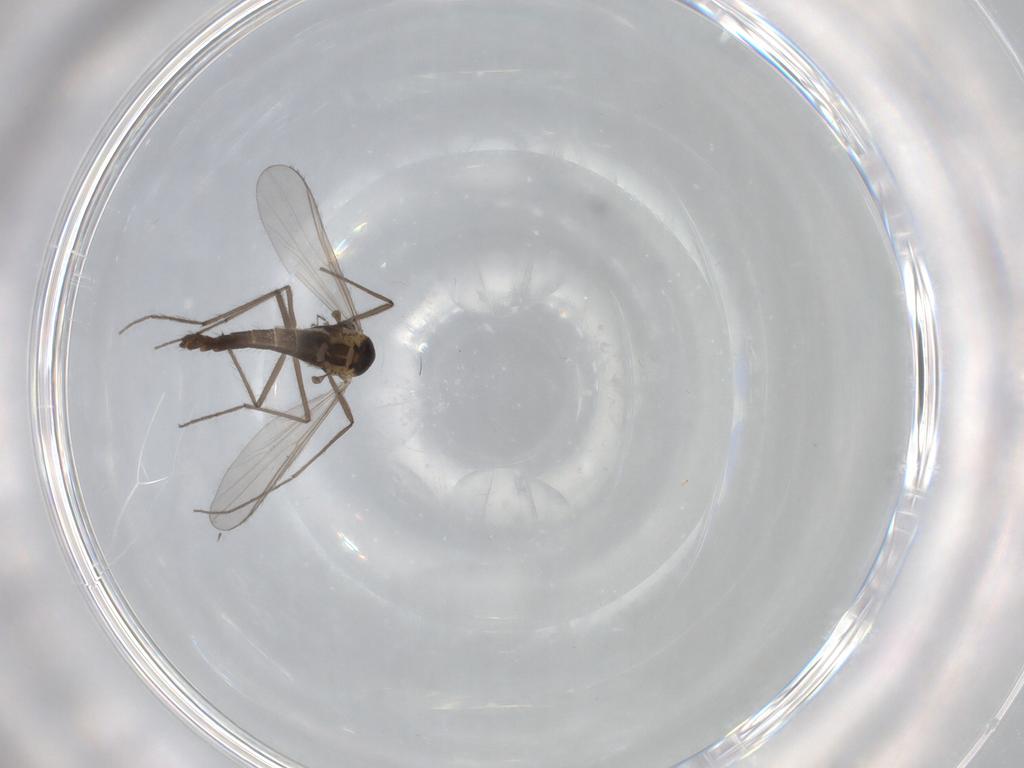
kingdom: Animalia
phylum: Arthropoda
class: Insecta
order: Diptera
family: Chironomidae
